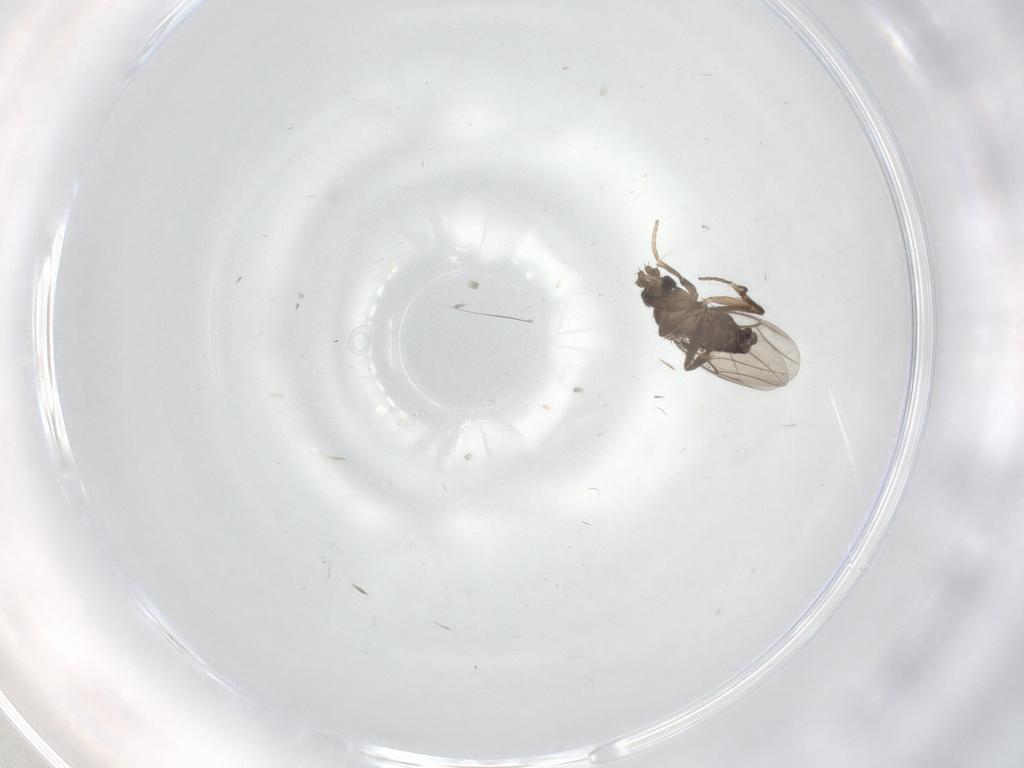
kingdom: Animalia
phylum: Arthropoda
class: Insecta
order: Diptera
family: Phoridae
